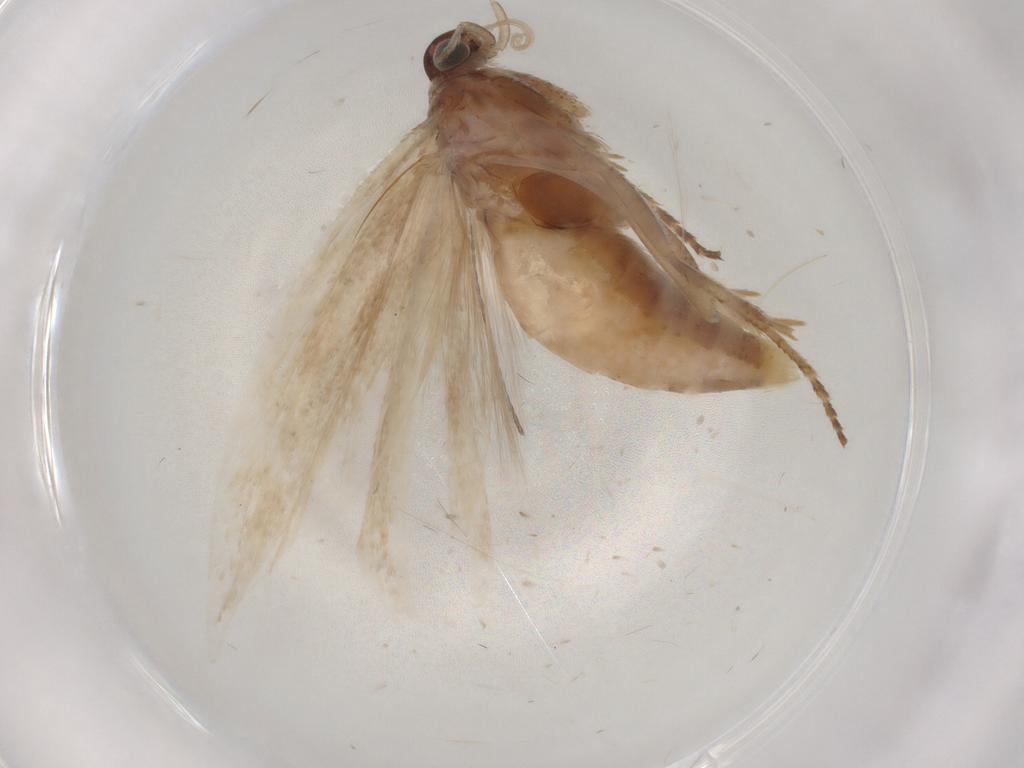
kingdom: Animalia
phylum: Arthropoda
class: Insecta
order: Lepidoptera
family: Gelechiidae
